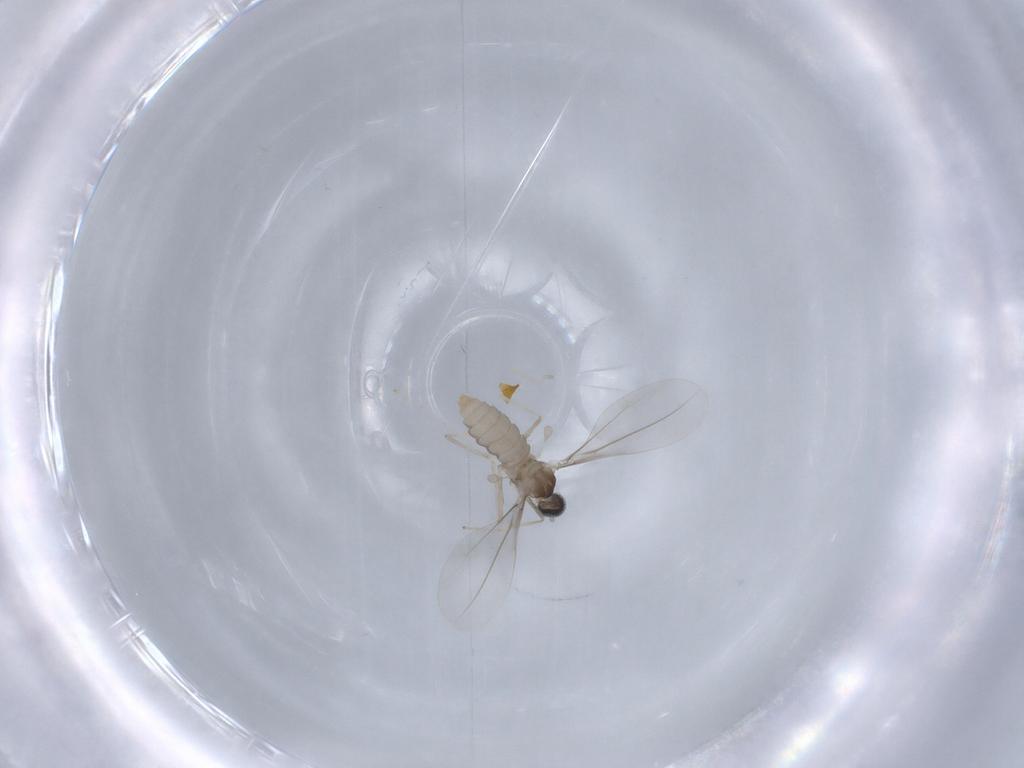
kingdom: Animalia
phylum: Arthropoda
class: Insecta
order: Diptera
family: Cecidomyiidae
